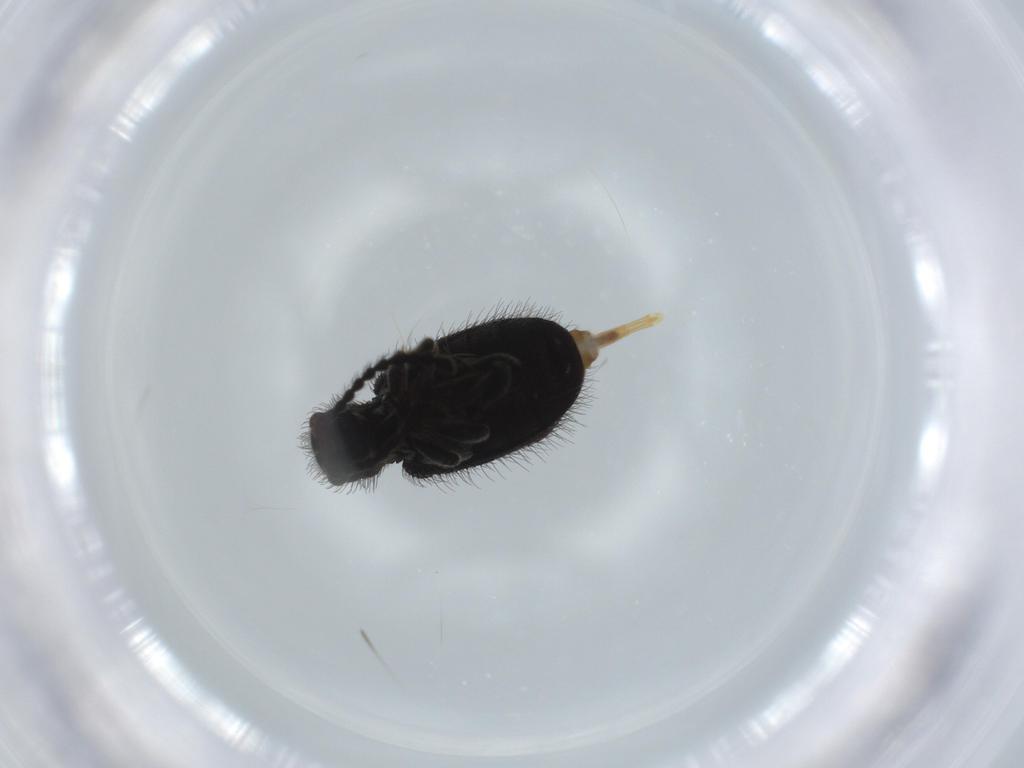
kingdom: Animalia
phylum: Arthropoda
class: Insecta
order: Coleoptera
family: Ptinidae
